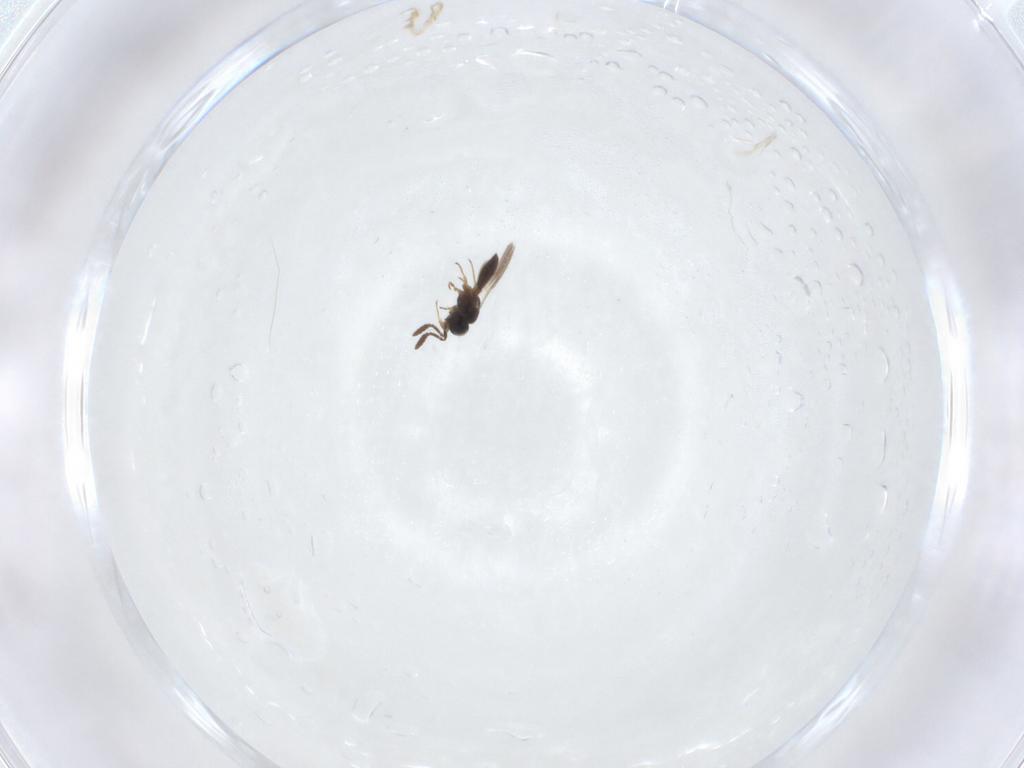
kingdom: Animalia
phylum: Arthropoda
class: Insecta
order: Hymenoptera
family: Scelionidae
